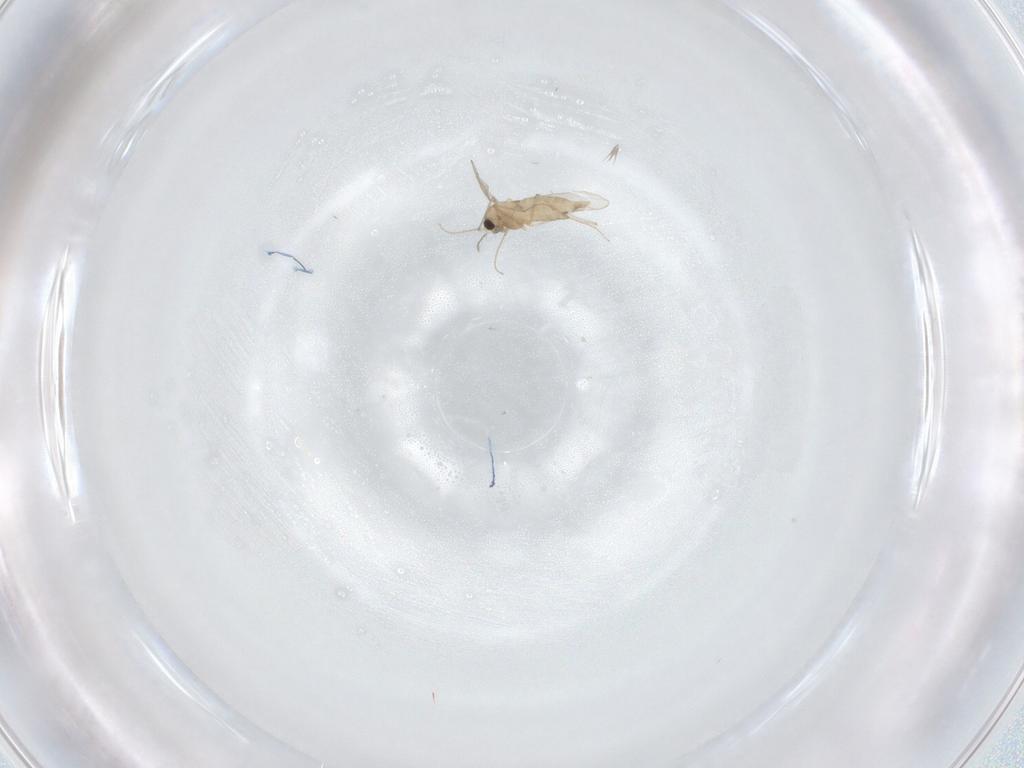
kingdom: Animalia
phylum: Arthropoda
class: Insecta
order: Diptera
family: Chironomidae
